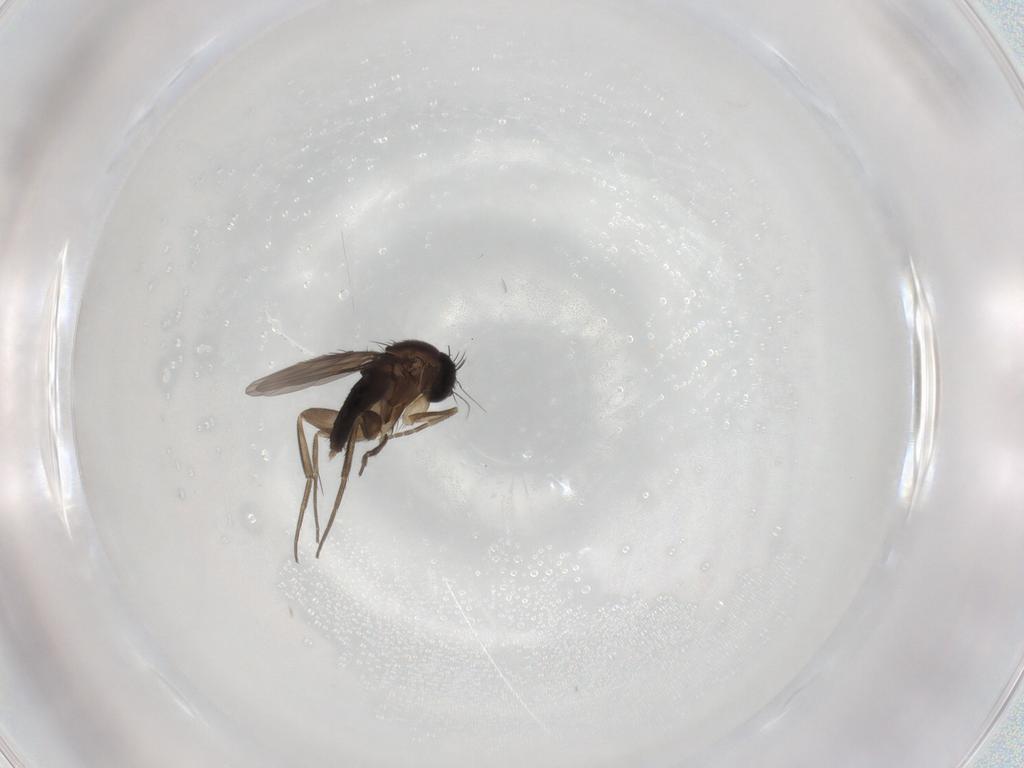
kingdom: Animalia
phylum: Arthropoda
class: Insecta
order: Diptera
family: Phoridae
